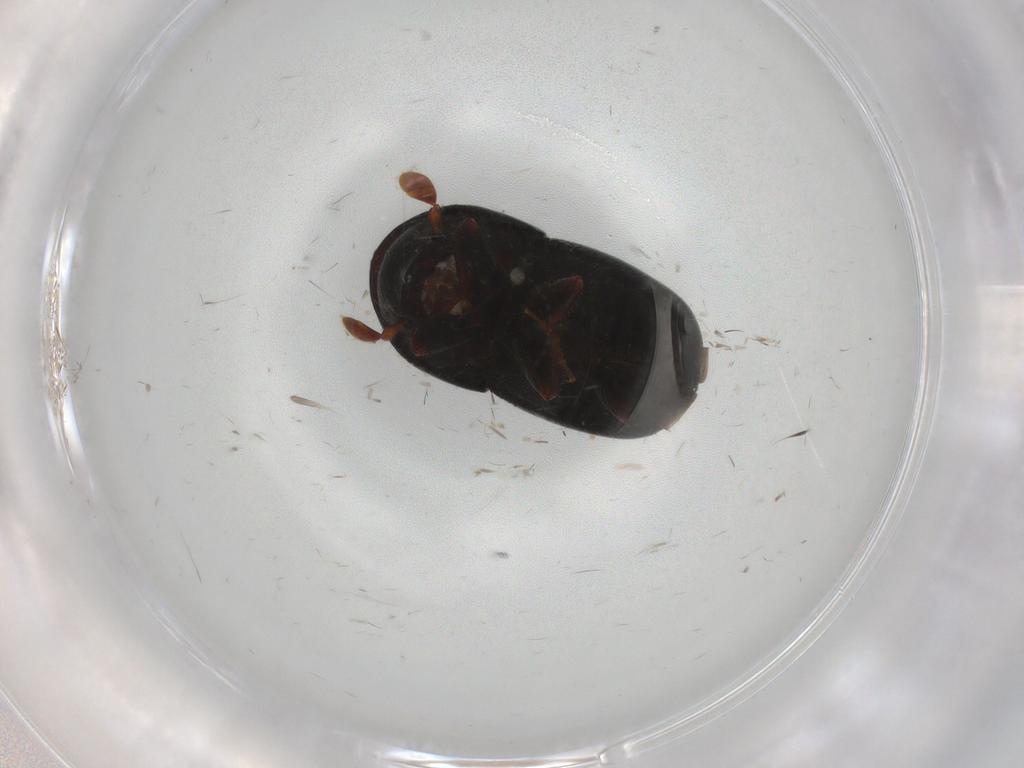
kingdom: Animalia
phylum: Arthropoda
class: Insecta
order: Coleoptera
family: Curculionidae
